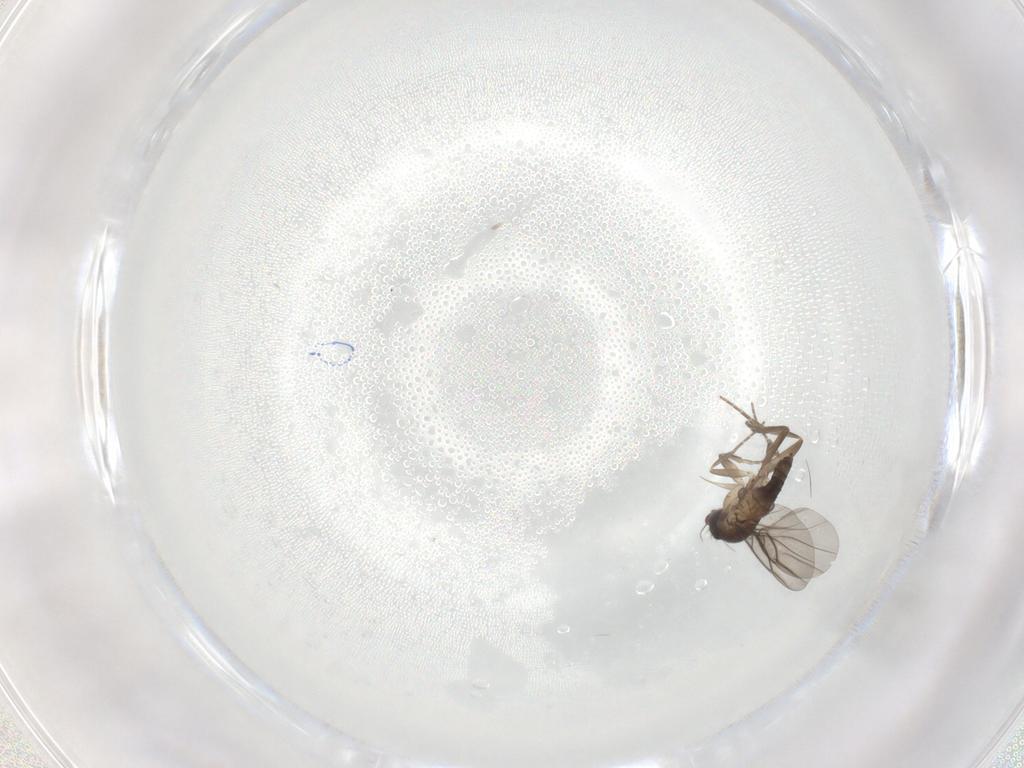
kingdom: Animalia
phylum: Arthropoda
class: Insecta
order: Diptera
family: Phoridae
